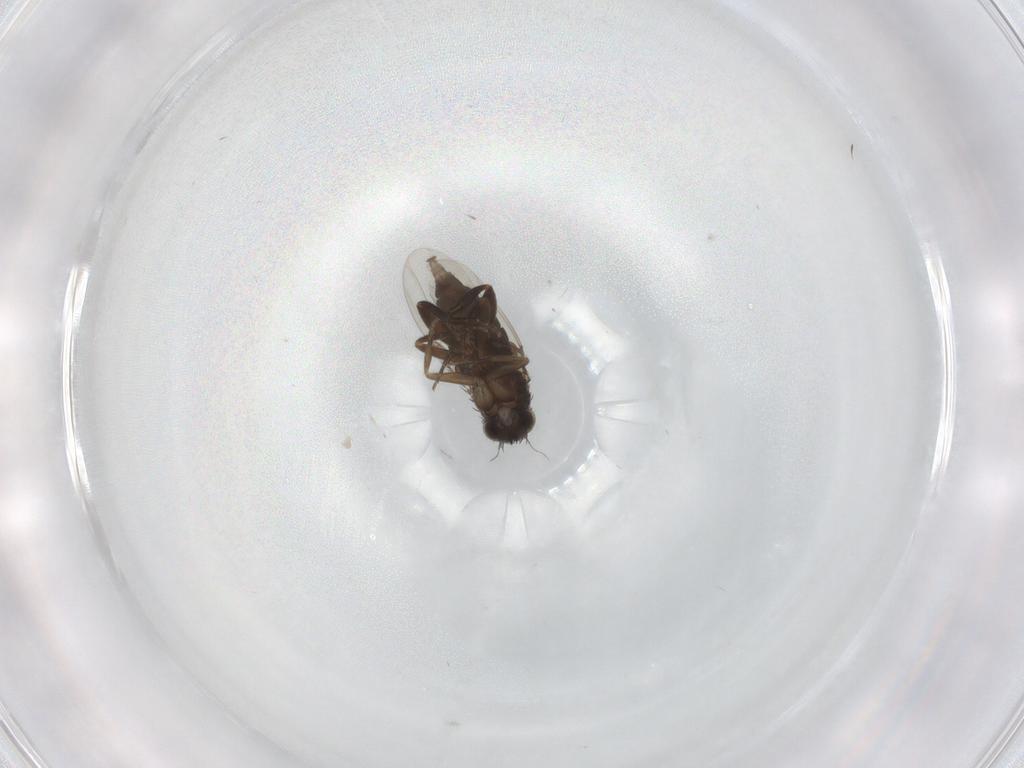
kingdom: Animalia
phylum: Arthropoda
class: Insecta
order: Diptera
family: Phoridae
